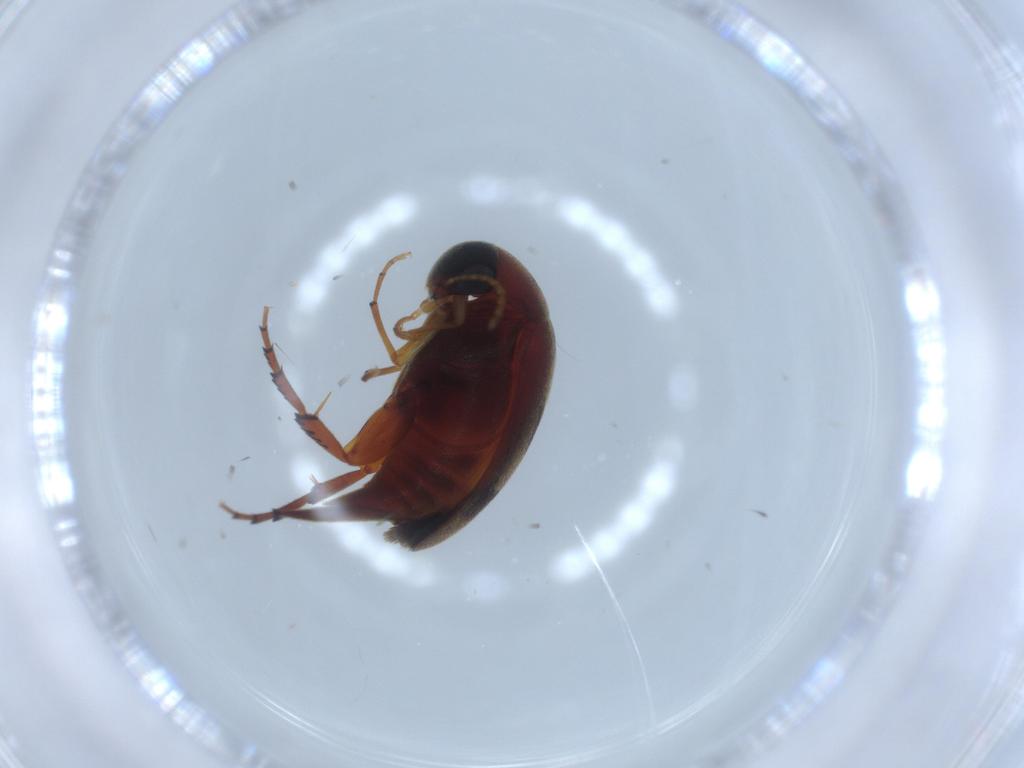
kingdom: Animalia
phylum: Arthropoda
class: Insecta
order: Coleoptera
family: Mordellidae
